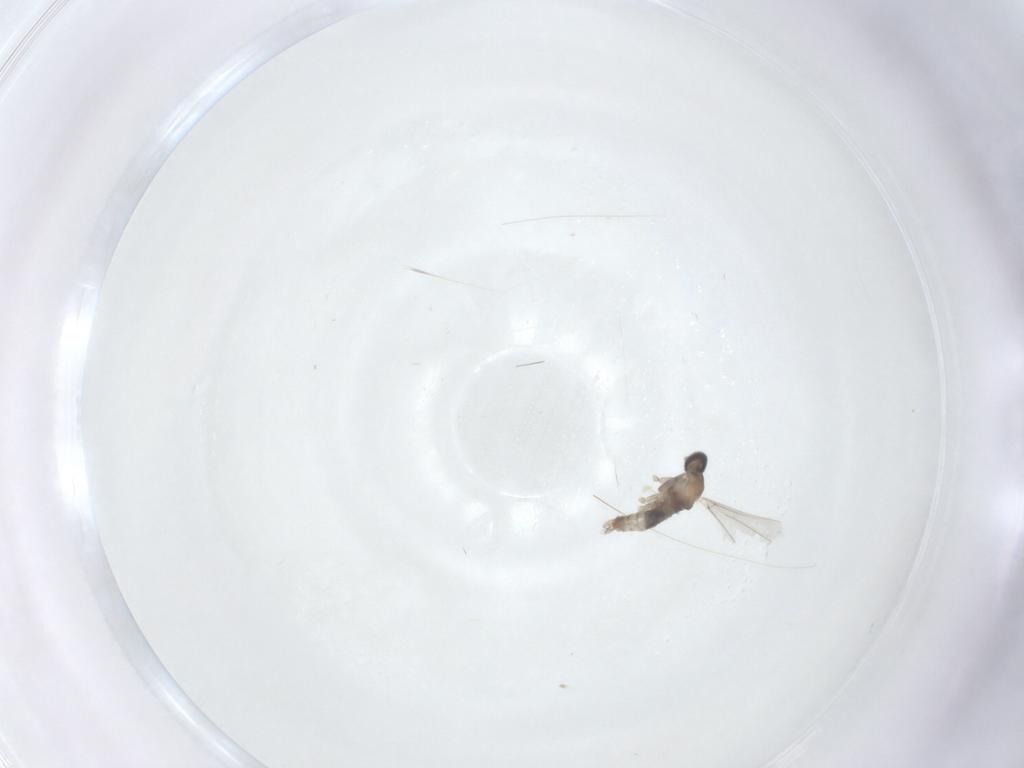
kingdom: Animalia
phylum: Arthropoda
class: Insecta
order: Diptera
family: Cecidomyiidae
